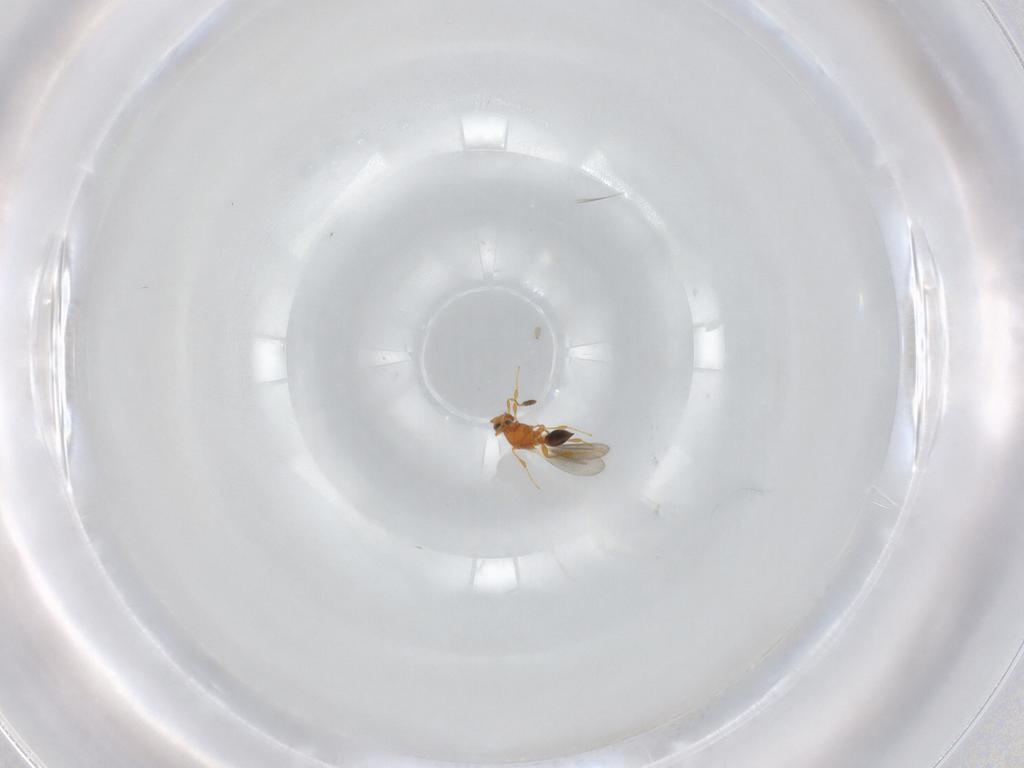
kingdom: Animalia
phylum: Arthropoda
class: Insecta
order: Hymenoptera
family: Platygastridae
